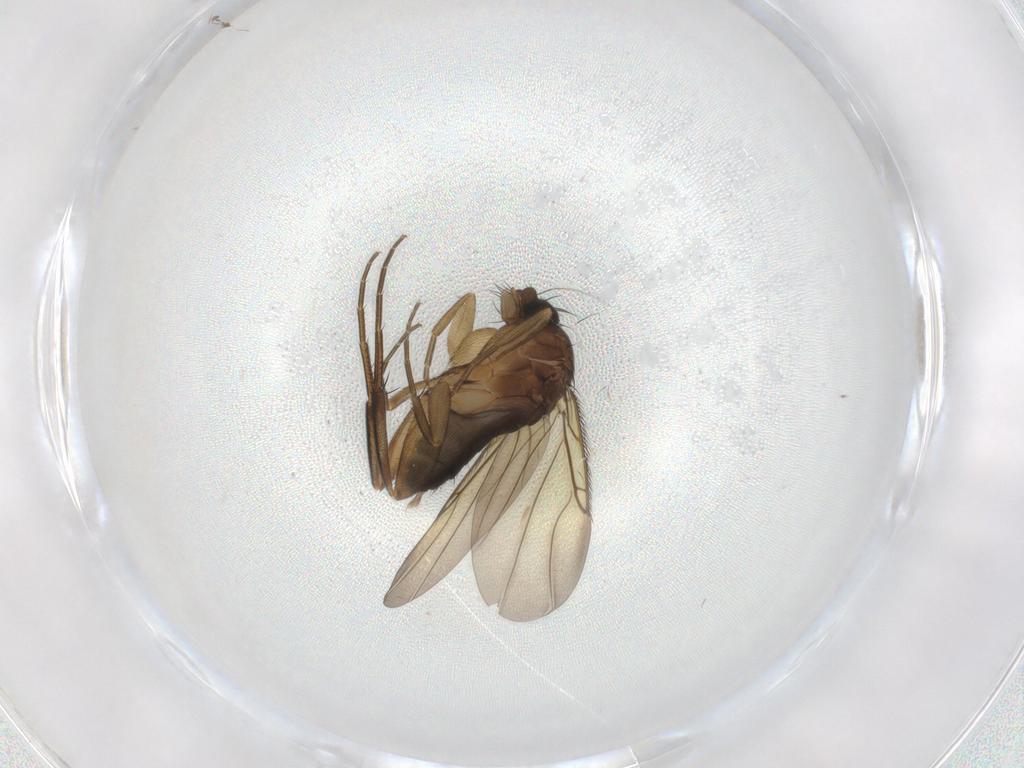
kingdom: Animalia
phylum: Arthropoda
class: Insecta
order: Diptera
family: Phoridae
